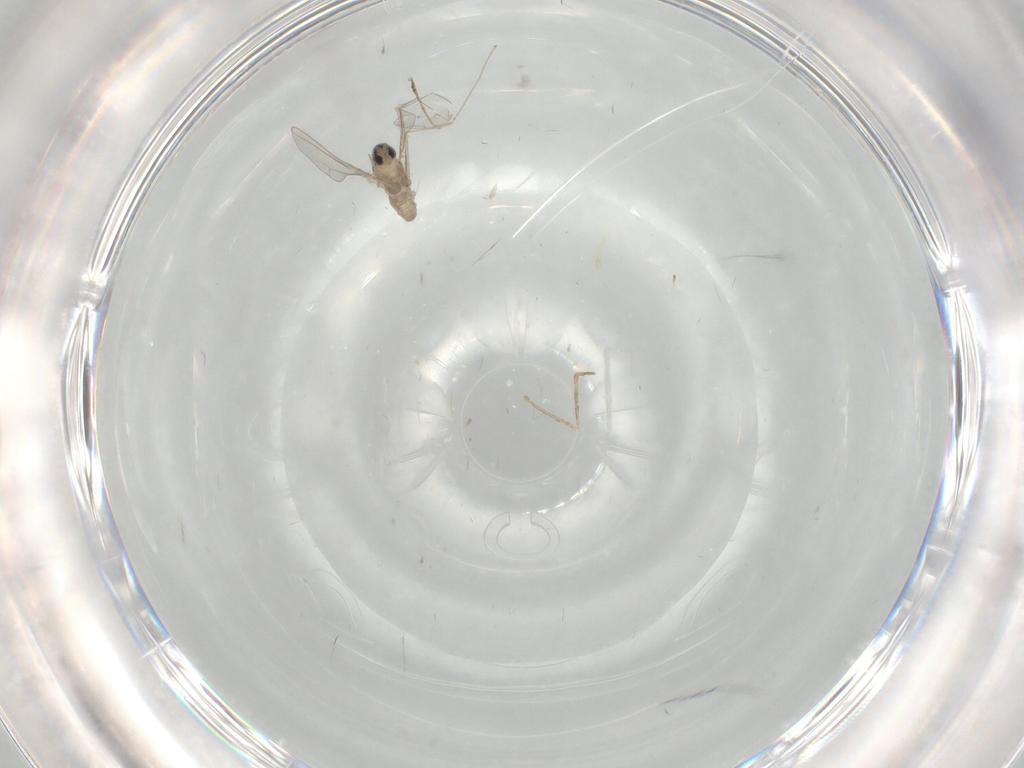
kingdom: Animalia
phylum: Arthropoda
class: Insecta
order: Diptera
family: Cecidomyiidae
